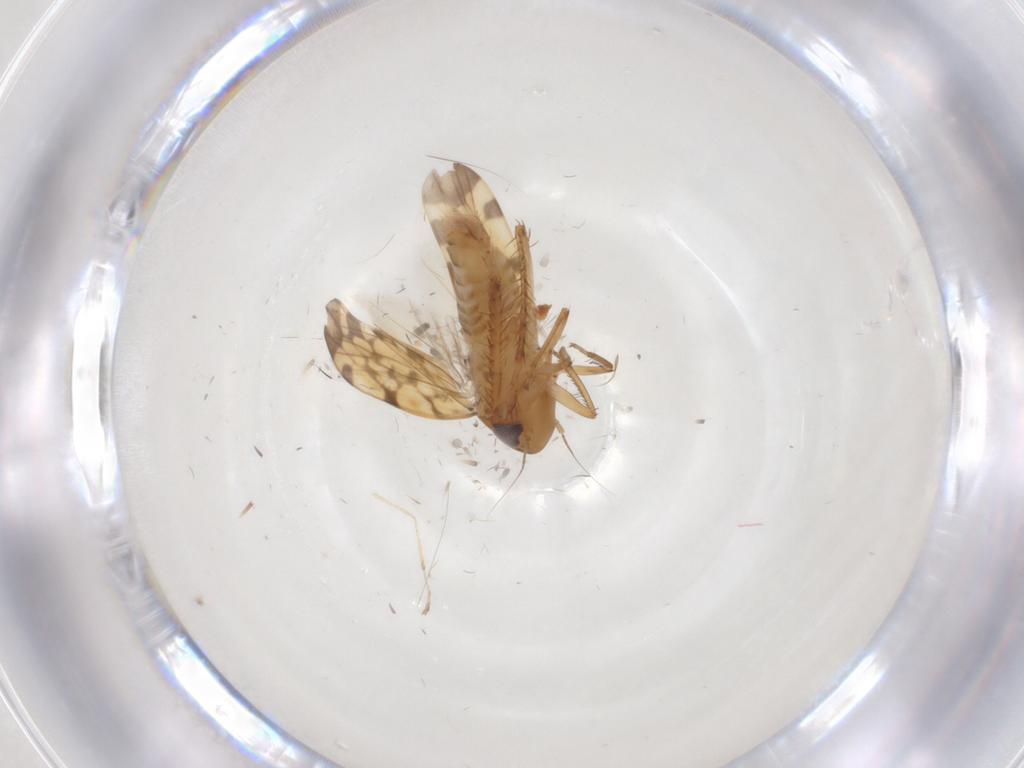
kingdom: Animalia
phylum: Arthropoda
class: Insecta
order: Hemiptera
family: Cicadellidae
